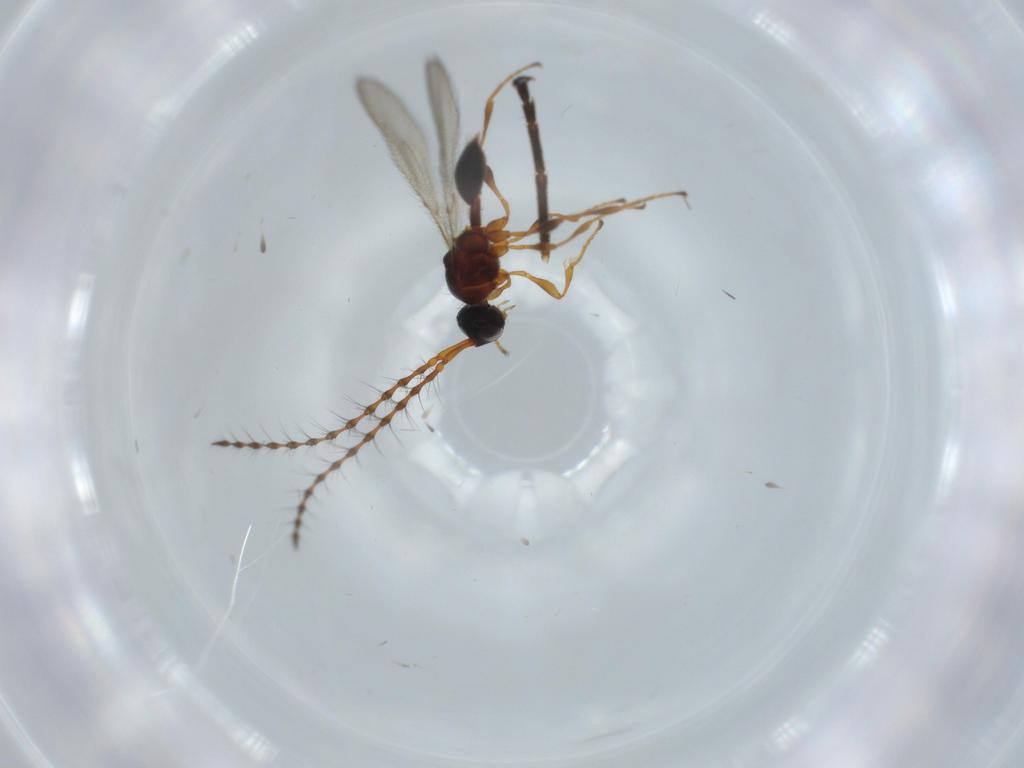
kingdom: Animalia
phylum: Arthropoda
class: Insecta
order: Hymenoptera
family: Diapriidae
